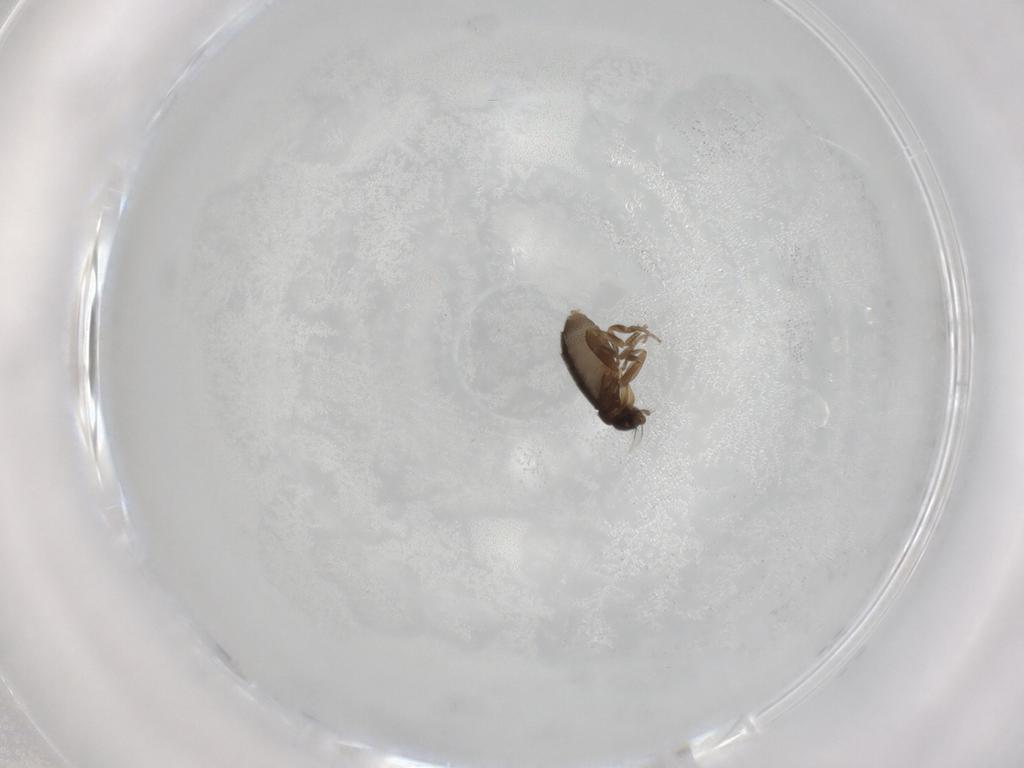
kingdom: Animalia
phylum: Arthropoda
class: Insecta
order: Diptera
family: Phoridae
